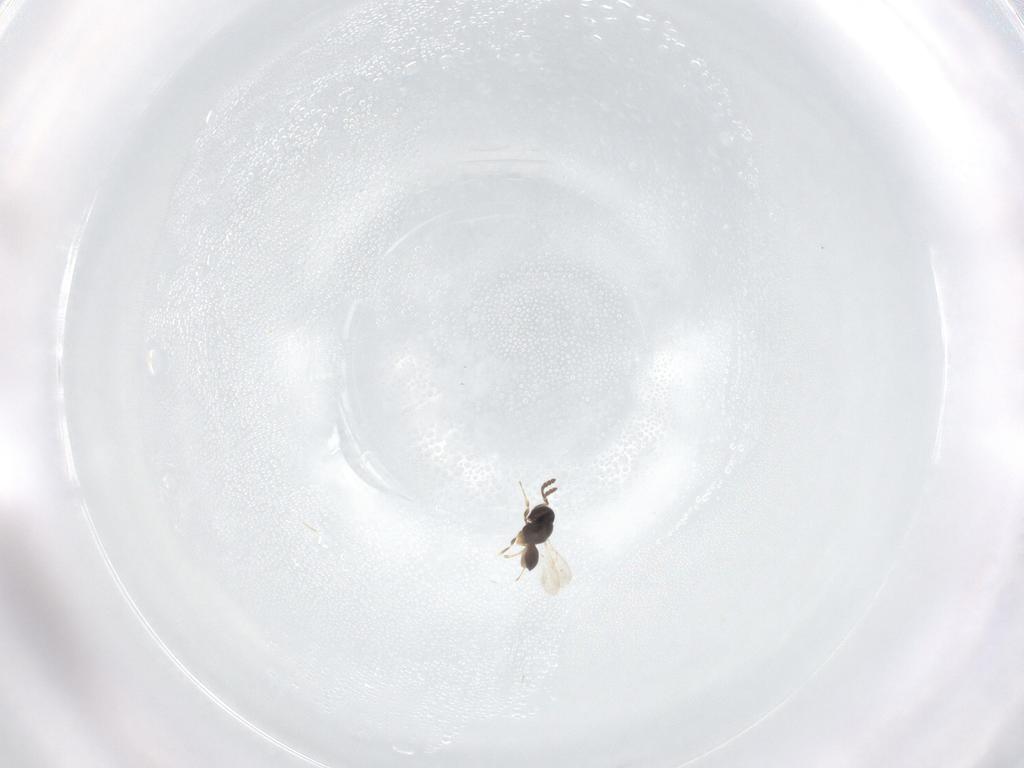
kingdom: Animalia
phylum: Arthropoda
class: Insecta
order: Hymenoptera
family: Scelionidae
